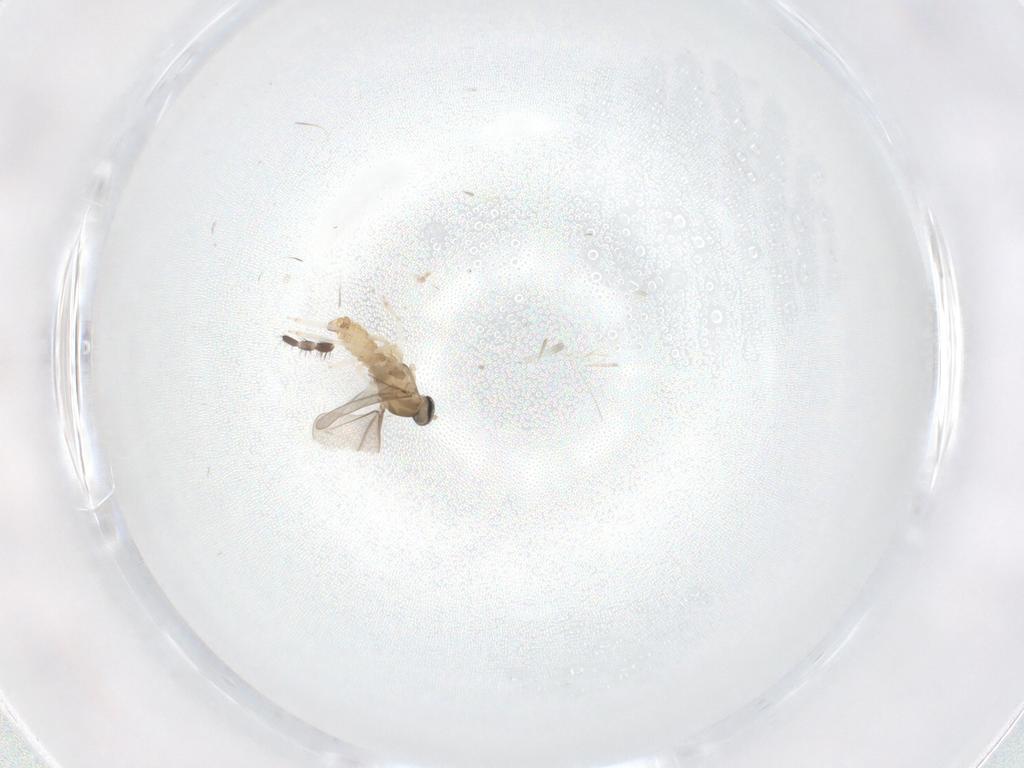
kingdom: Animalia
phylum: Arthropoda
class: Insecta
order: Diptera
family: Cecidomyiidae
